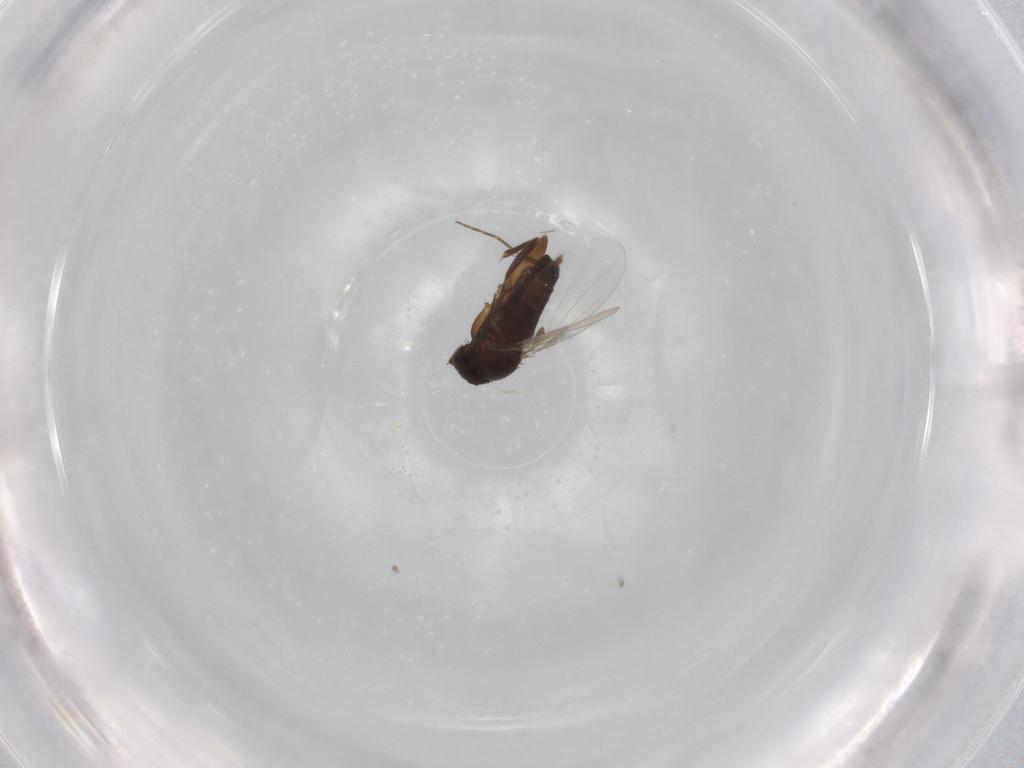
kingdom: Animalia
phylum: Arthropoda
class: Insecta
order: Diptera
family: Phoridae
